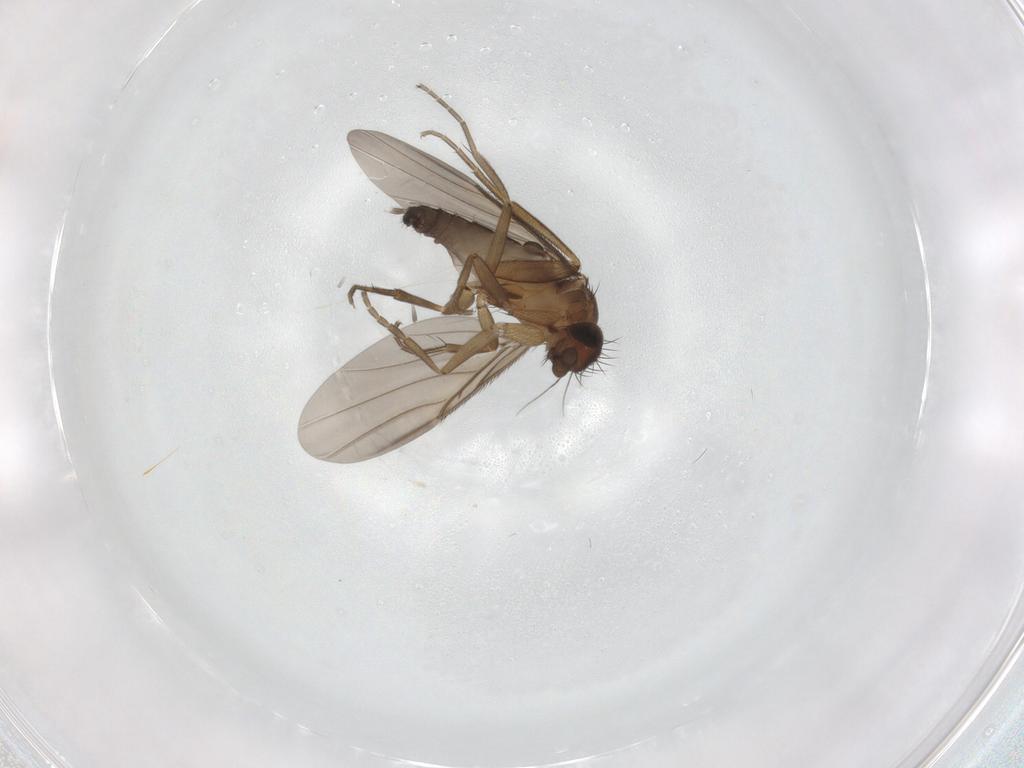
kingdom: Animalia
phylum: Arthropoda
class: Insecta
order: Diptera
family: Phoridae
